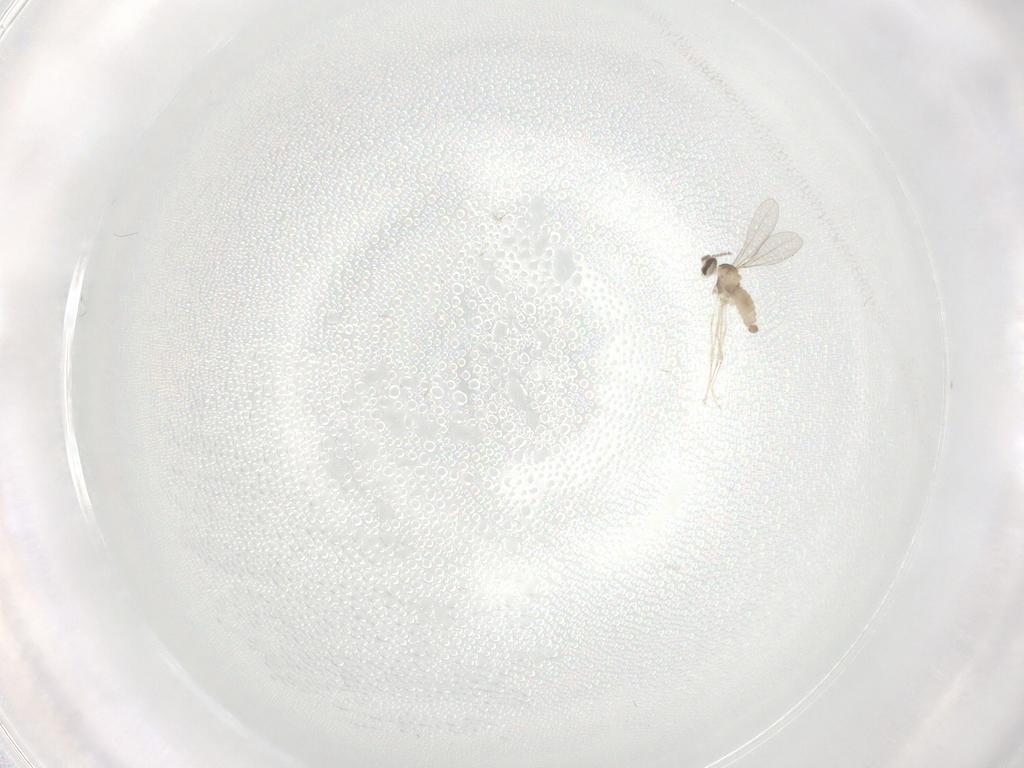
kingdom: Animalia
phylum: Arthropoda
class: Insecta
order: Diptera
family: Cecidomyiidae
